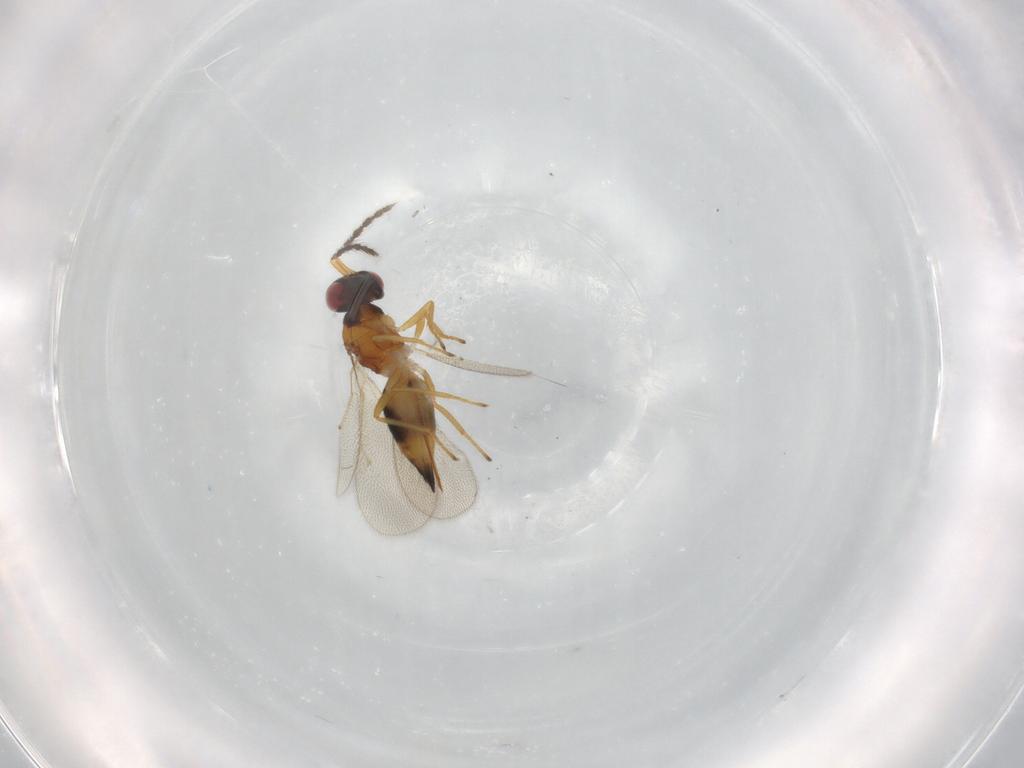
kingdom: Animalia
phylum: Arthropoda
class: Insecta
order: Hymenoptera
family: Eulophidae
